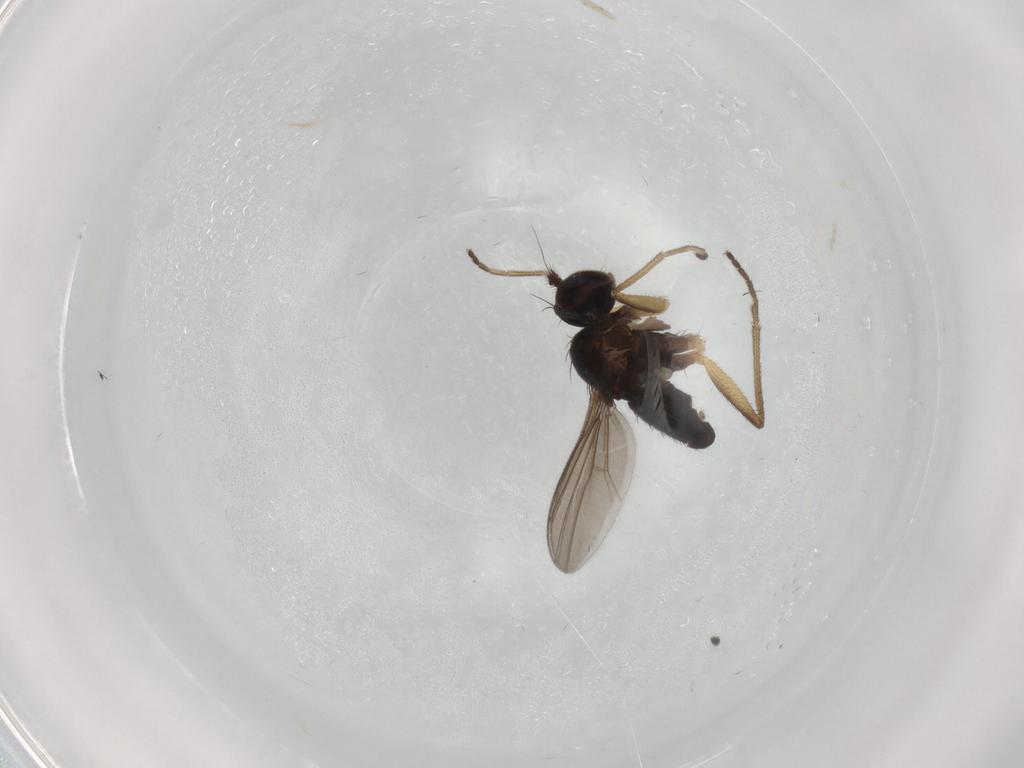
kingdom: Animalia
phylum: Arthropoda
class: Insecta
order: Diptera
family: Dolichopodidae
